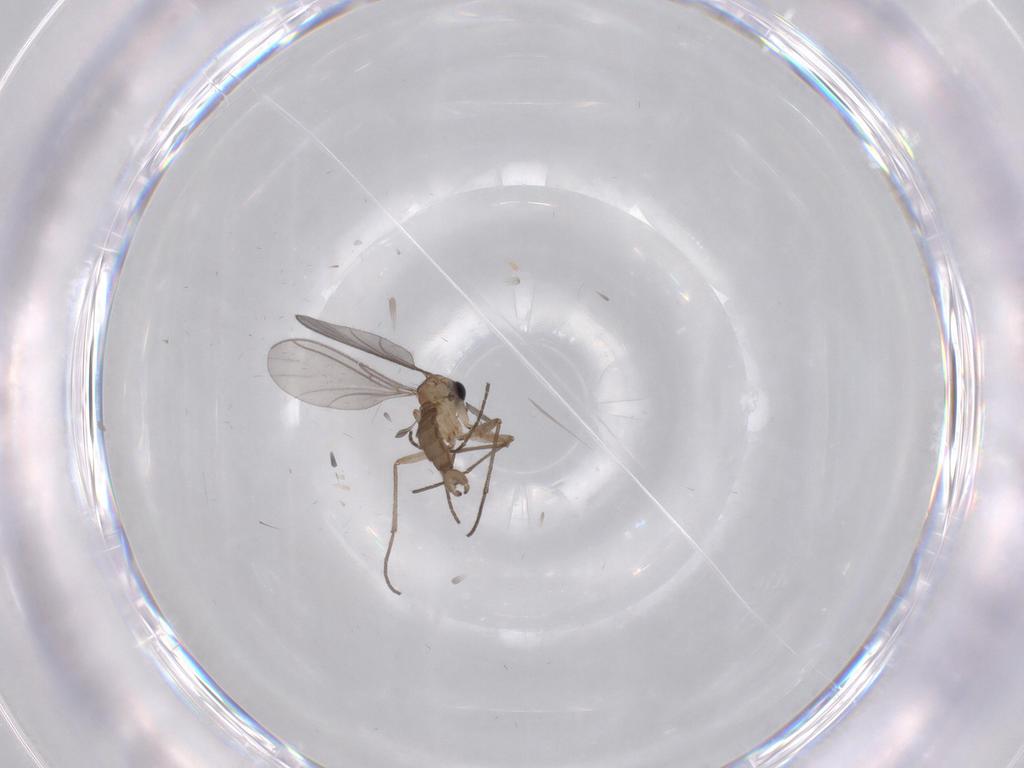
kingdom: Animalia
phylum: Arthropoda
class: Insecta
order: Diptera
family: Sciaridae
